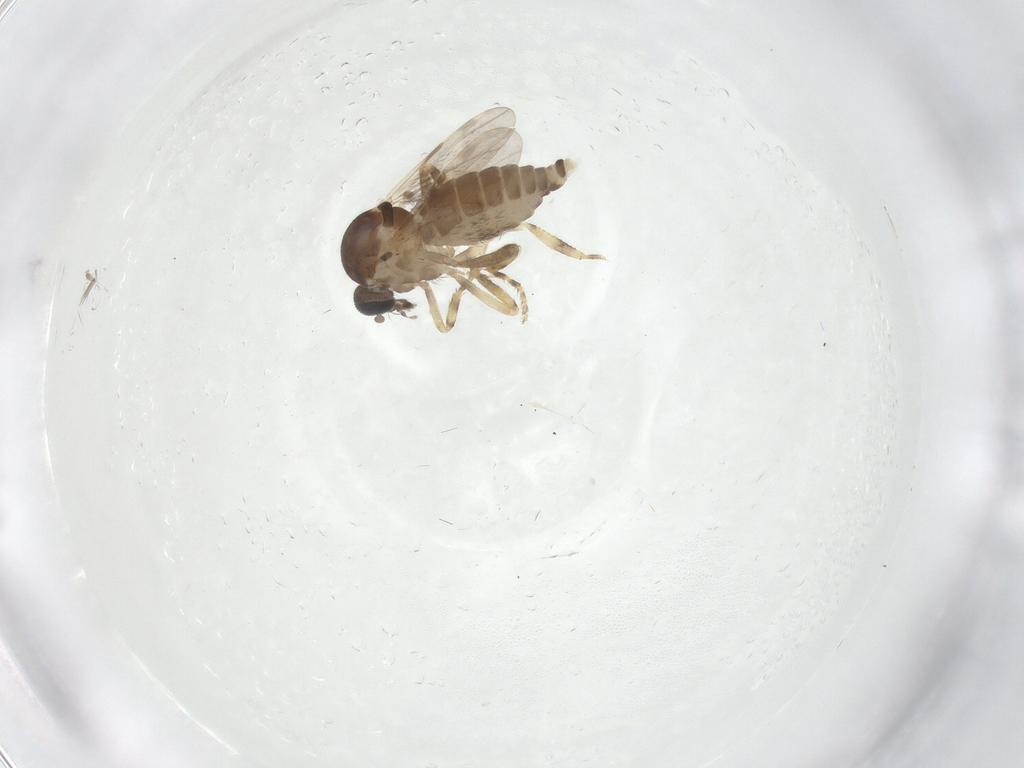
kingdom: Animalia
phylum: Arthropoda
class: Insecta
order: Diptera
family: Ceratopogonidae
